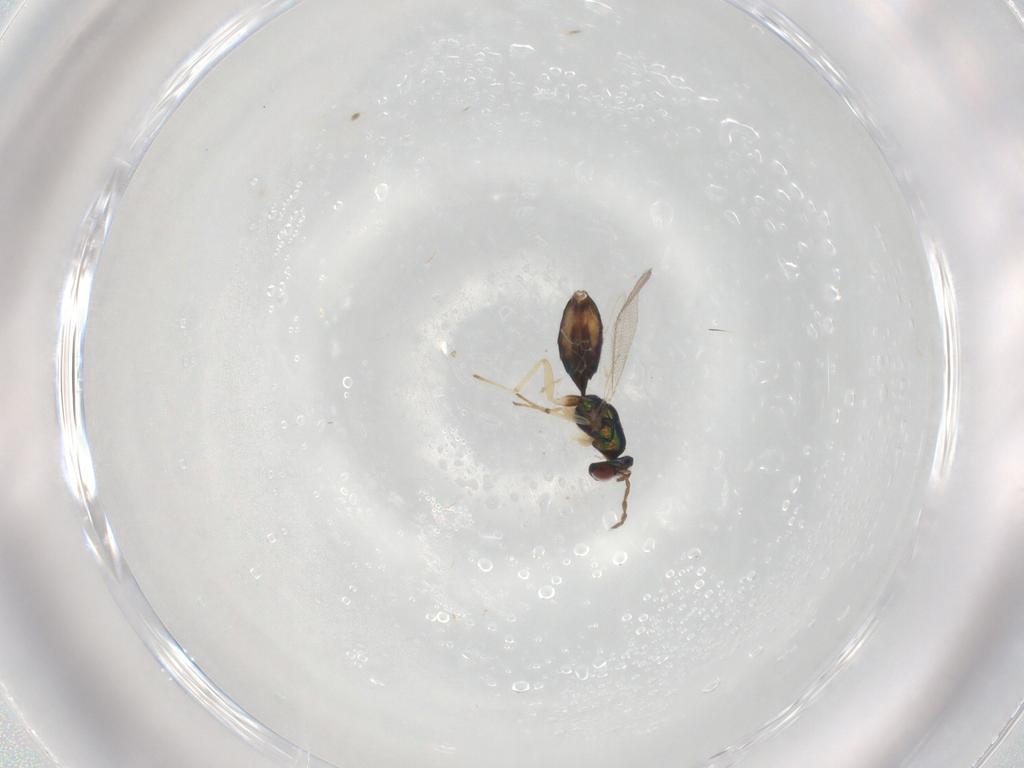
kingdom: Animalia
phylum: Arthropoda
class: Insecta
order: Hymenoptera
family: Eulophidae
